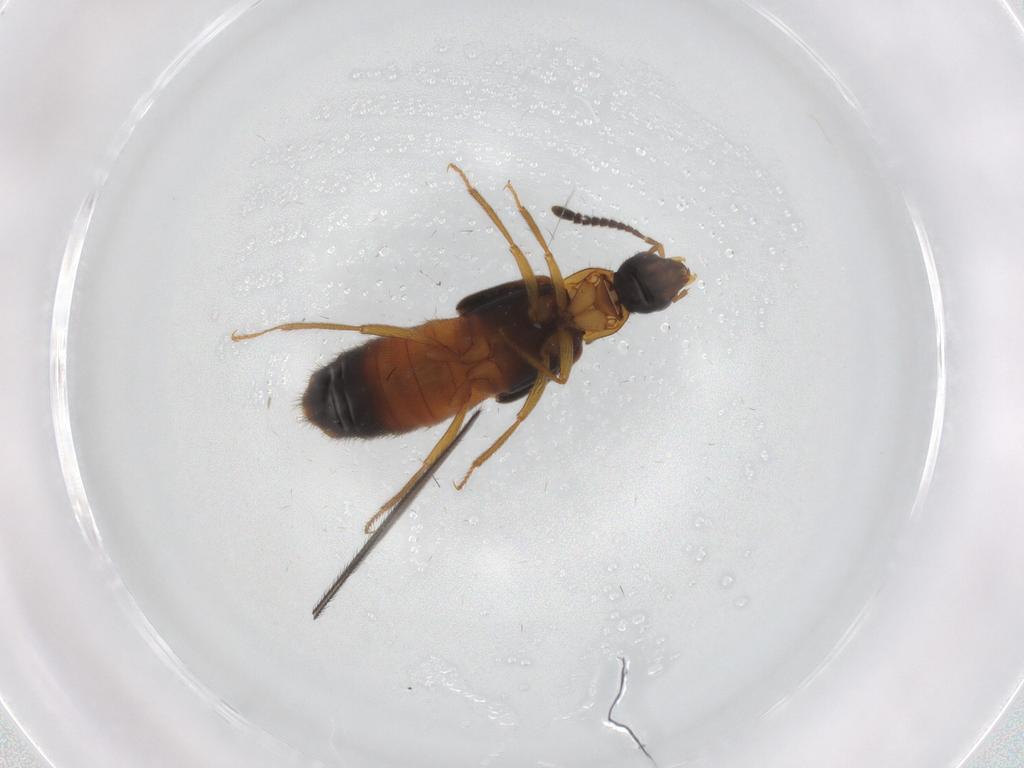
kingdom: Animalia
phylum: Arthropoda
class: Insecta
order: Coleoptera
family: Staphylinidae
